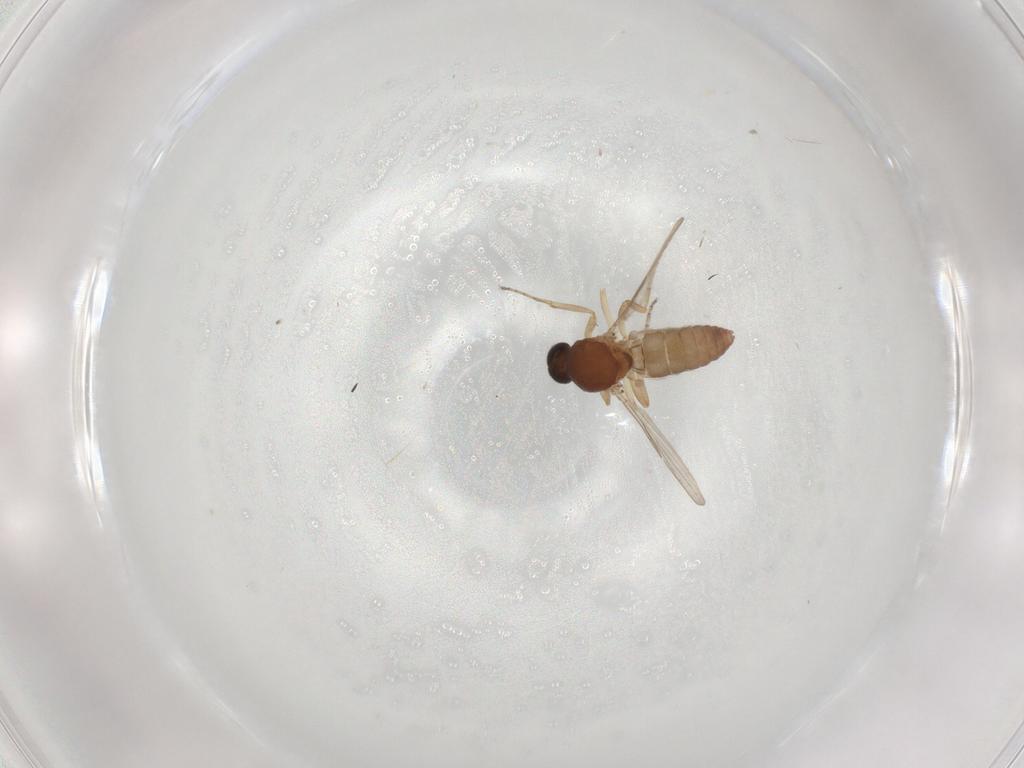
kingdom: Animalia
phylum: Arthropoda
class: Insecta
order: Diptera
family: Ceratopogonidae
